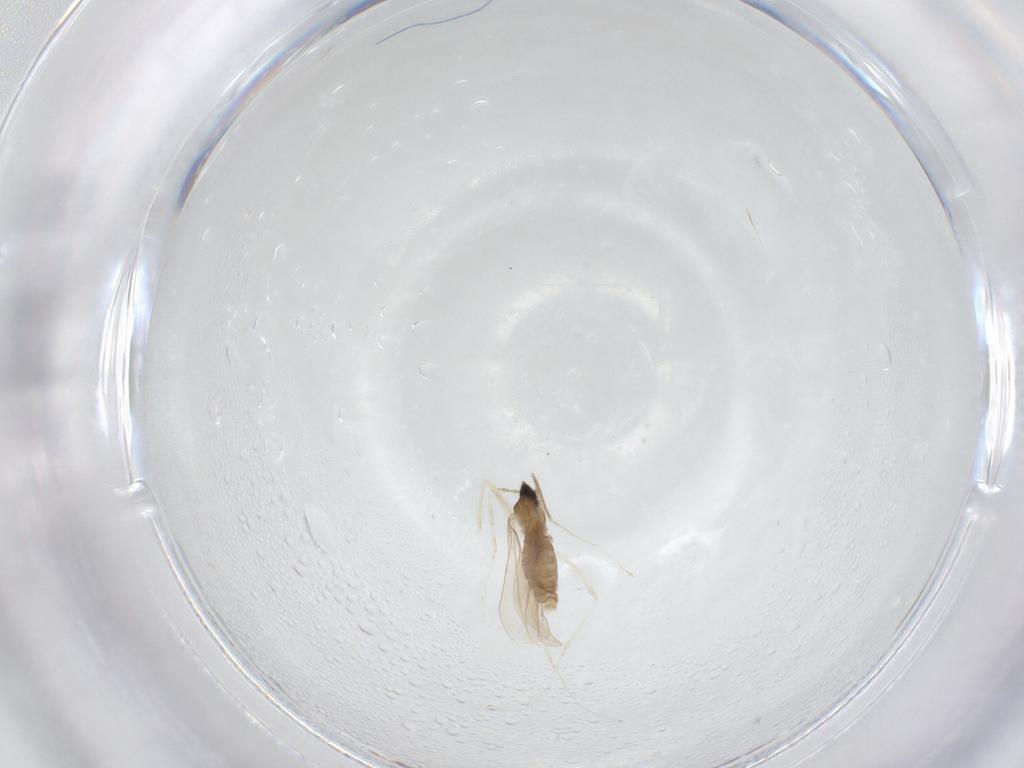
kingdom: Animalia
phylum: Arthropoda
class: Insecta
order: Diptera
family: Cecidomyiidae
